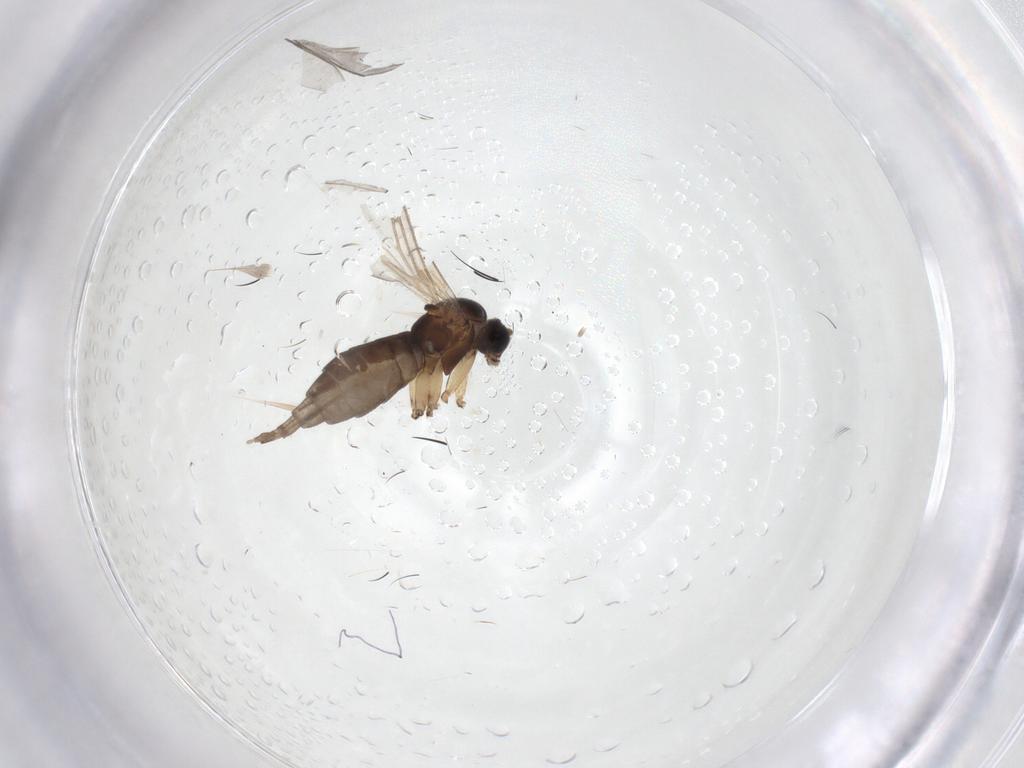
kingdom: Animalia
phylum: Arthropoda
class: Insecta
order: Diptera
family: Sciaridae
